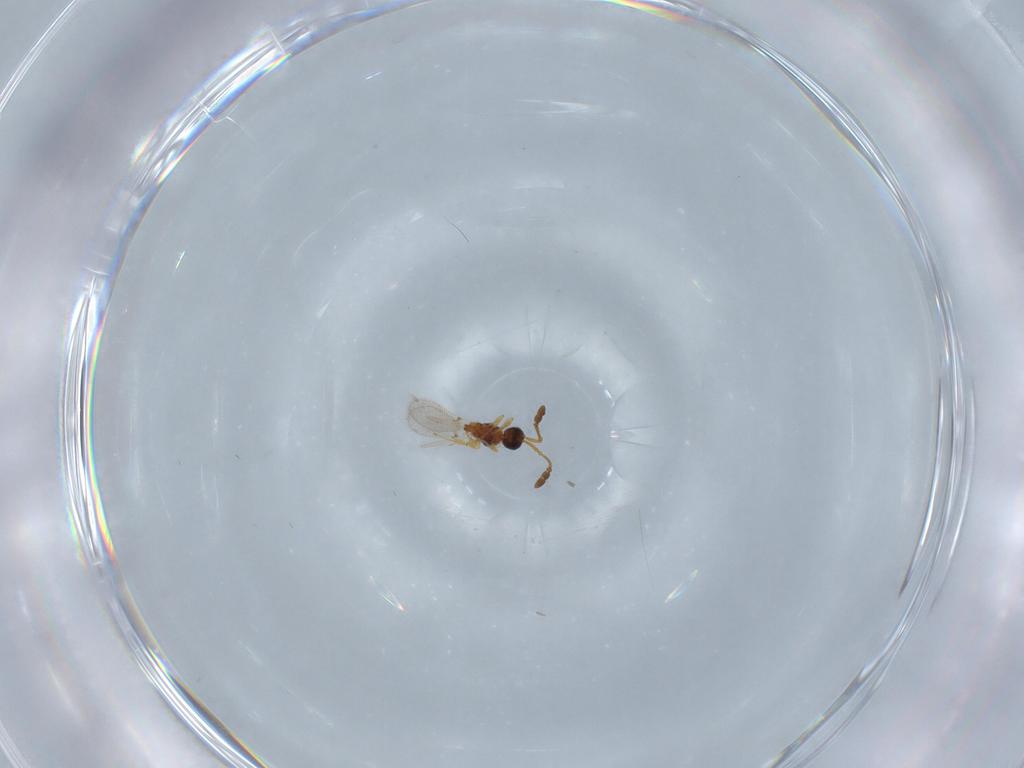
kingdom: Animalia
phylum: Arthropoda
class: Insecta
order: Hymenoptera
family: Diapriidae
